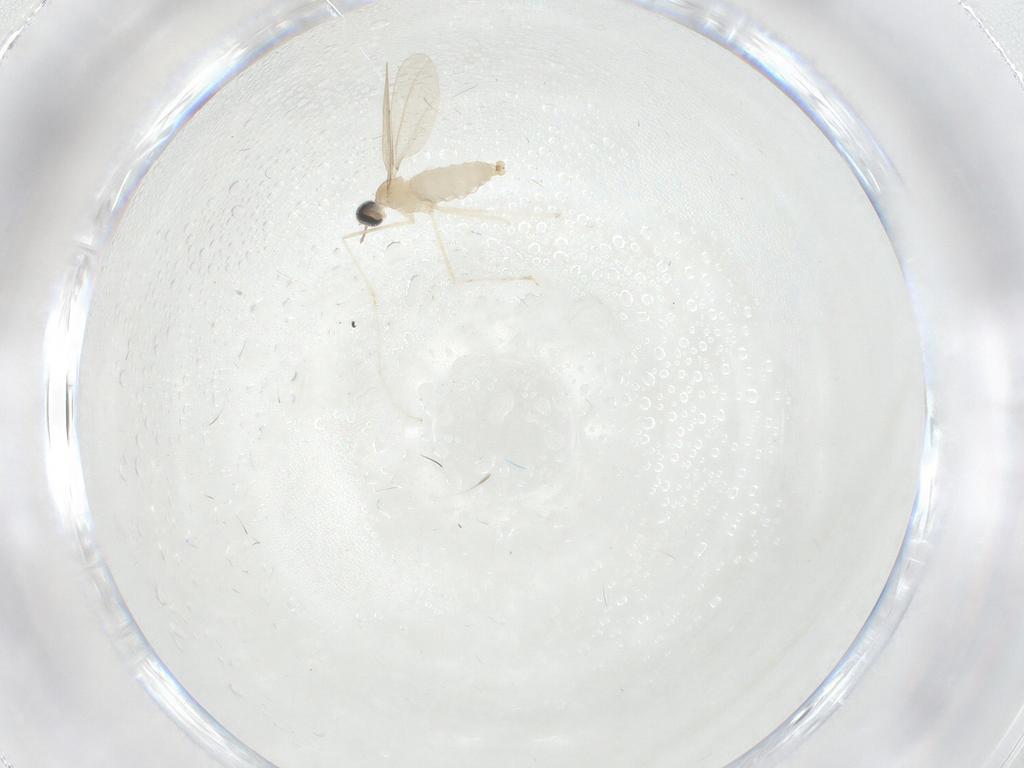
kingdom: Animalia
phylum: Arthropoda
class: Insecta
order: Diptera
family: Cecidomyiidae
